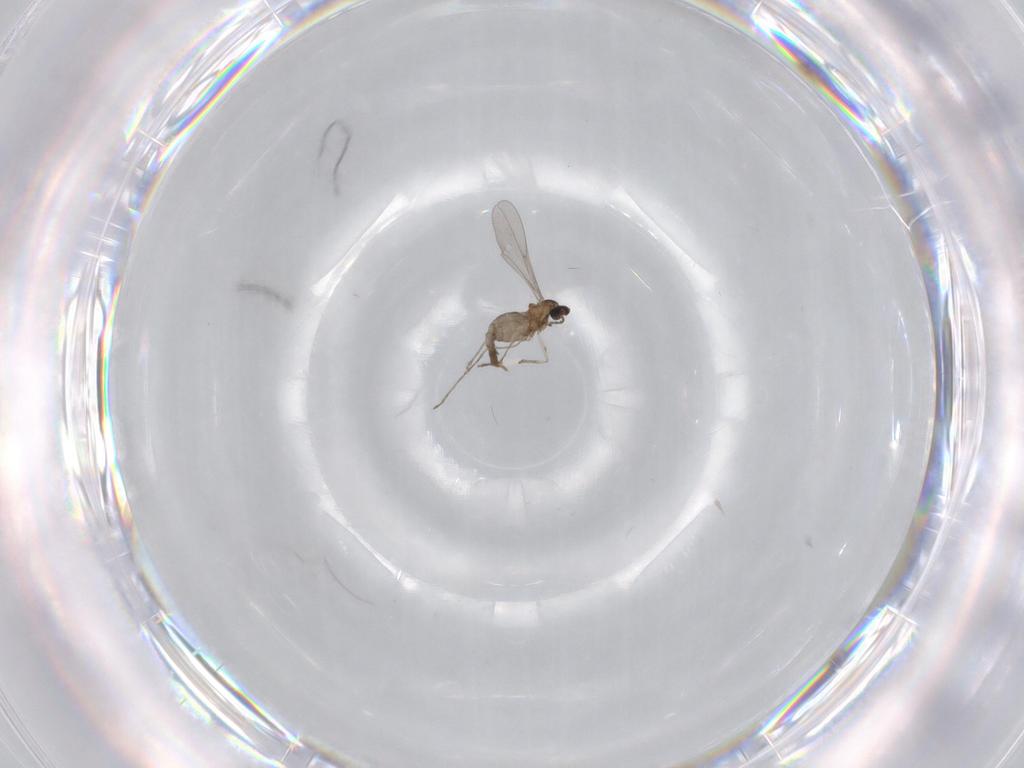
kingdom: Animalia
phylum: Arthropoda
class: Insecta
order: Diptera
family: Cecidomyiidae
